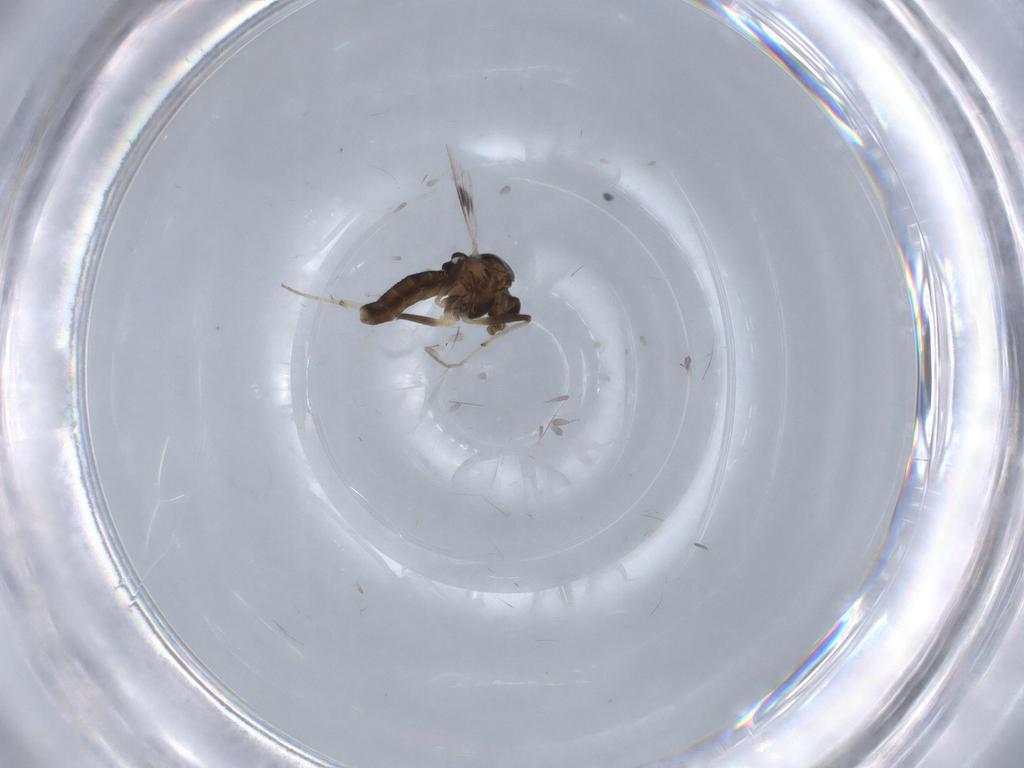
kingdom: Animalia
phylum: Arthropoda
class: Insecta
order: Diptera
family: Chironomidae
